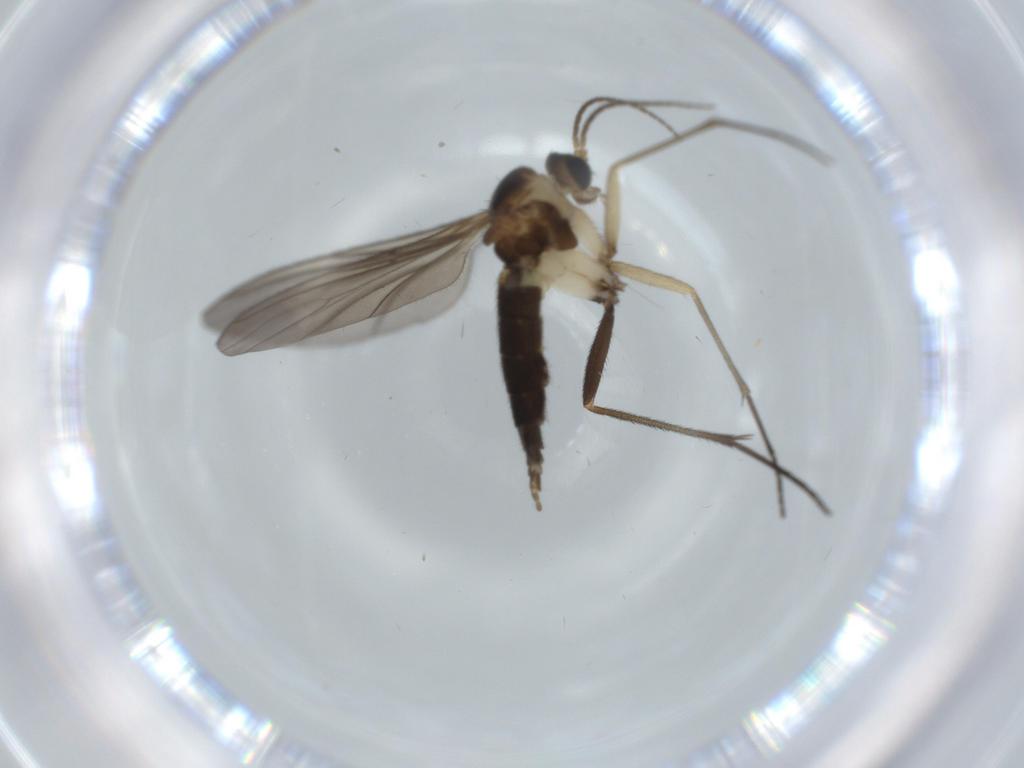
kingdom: Animalia
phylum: Arthropoda
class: Insecta
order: Diptera
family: Sciaridae
